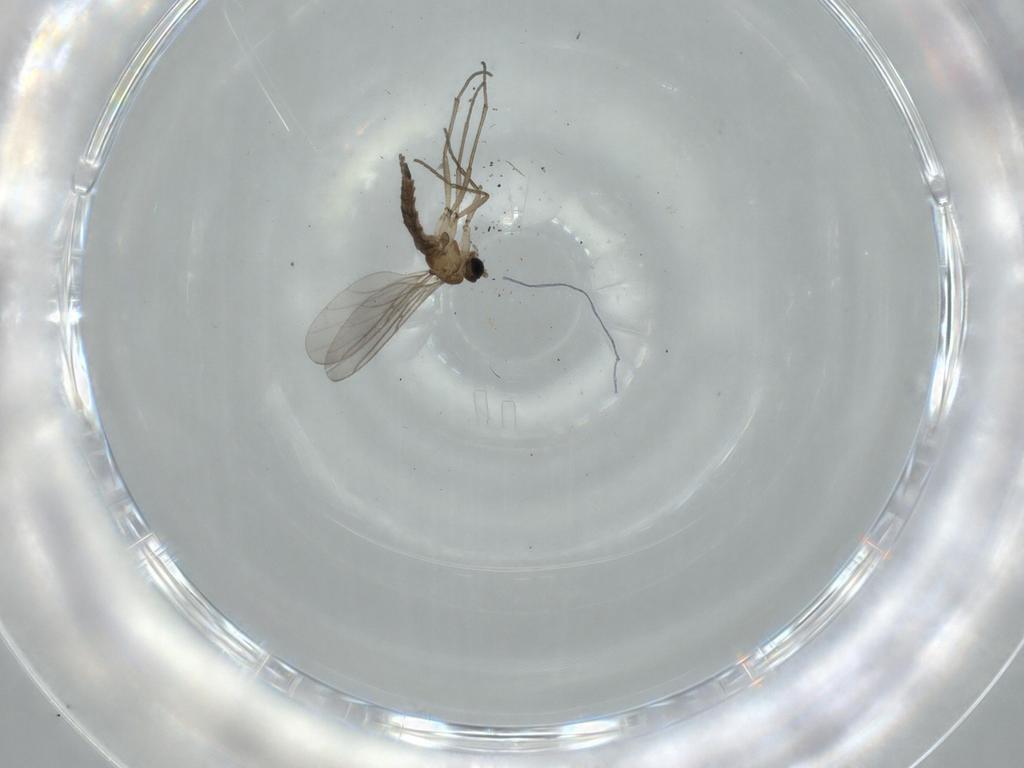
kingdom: Animalia
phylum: Arthropoda
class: Insecta
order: Diptera
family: Sciaridae
